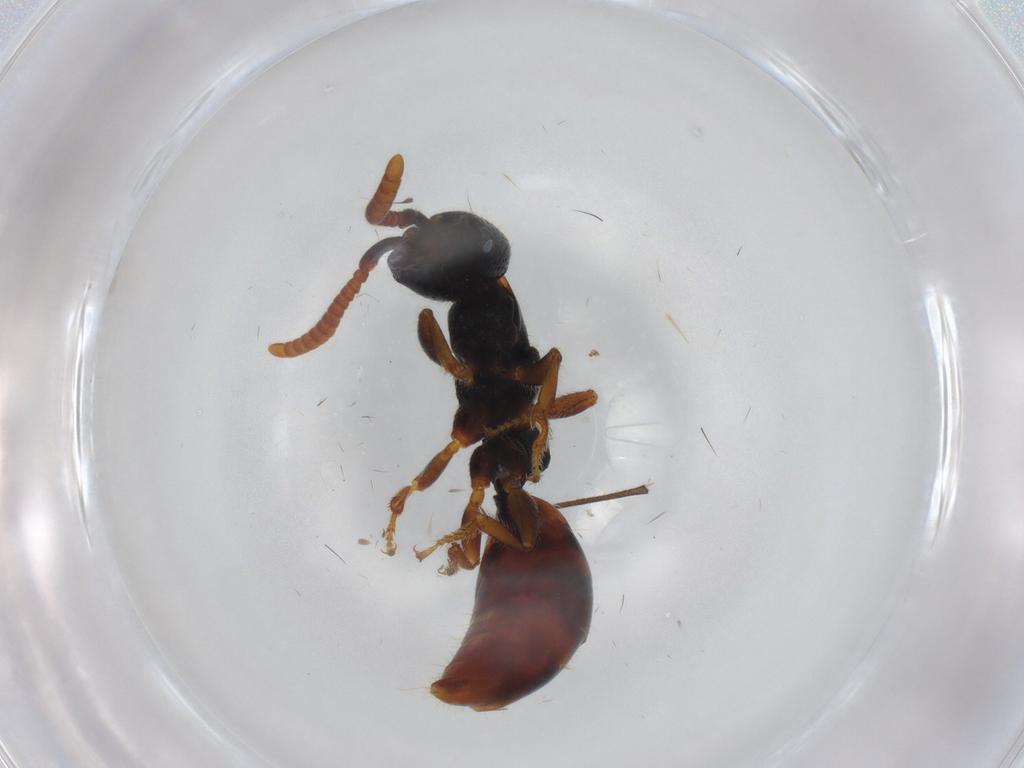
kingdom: Animalia
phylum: Arthropoda
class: Insecta
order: Hymenoptera
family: Bethylidae
